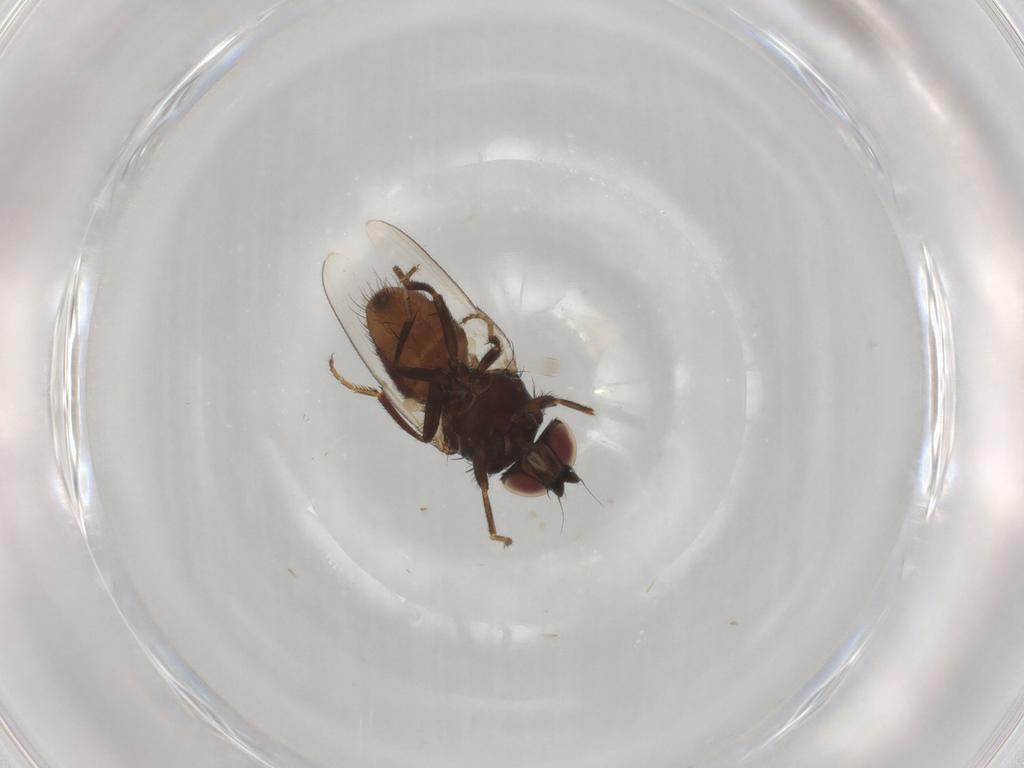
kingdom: Animalia
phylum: Arthropoda
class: Insecta
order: Diptera
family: Milichiidae
